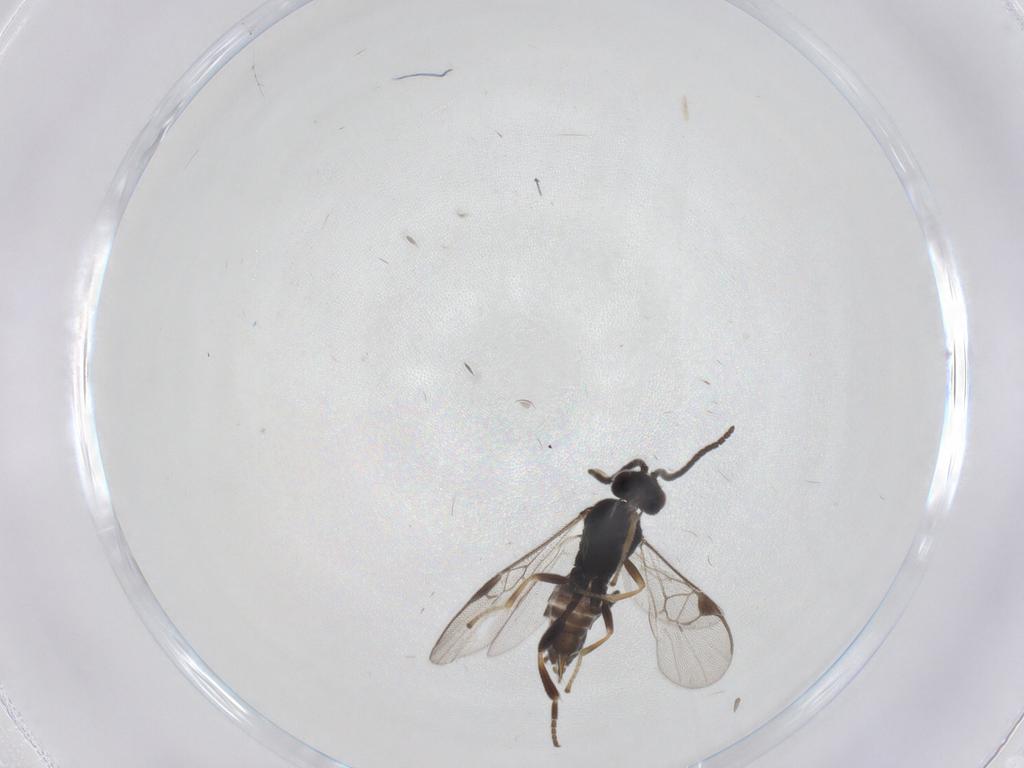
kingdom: Animalia
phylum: Arthropoda
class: Insecta
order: Hymenoptera
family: Braconidae
